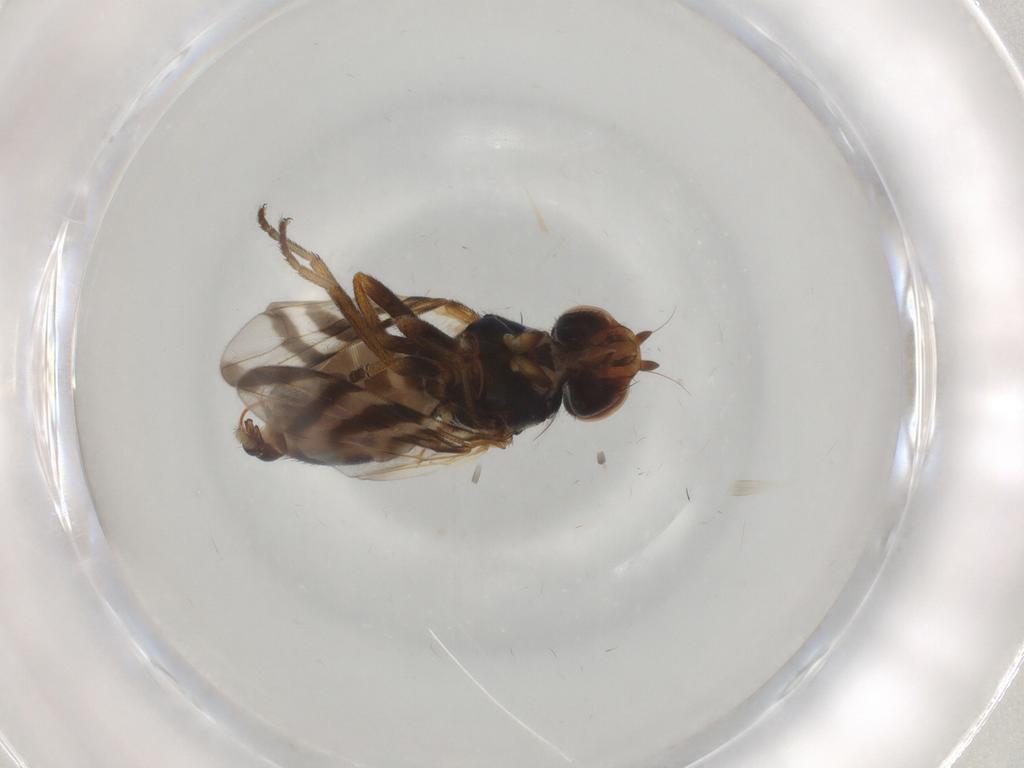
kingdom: Animalia
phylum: Arthropoda
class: Insecta
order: Diptera
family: Platystomatidae
